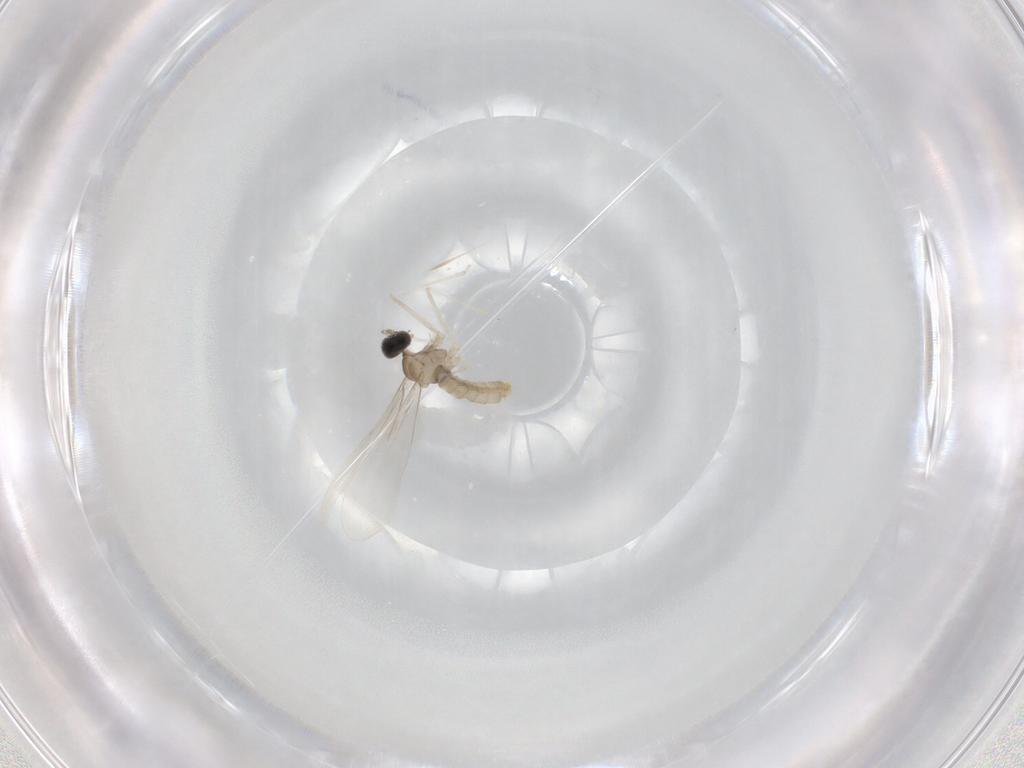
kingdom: Animalia
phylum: Arthropoda
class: Insecta
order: Diptera
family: Cecidomyiidae
